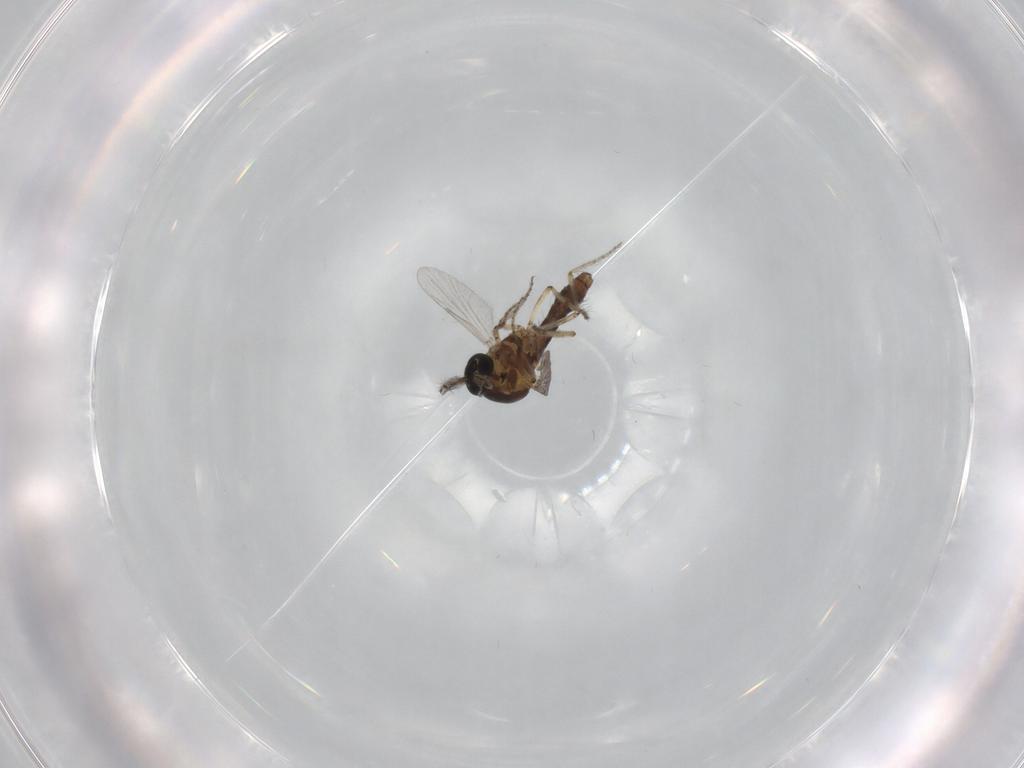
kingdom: Animalia
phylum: Arthropoda
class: Insecta
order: Diptera
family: Ceratopogonidae
